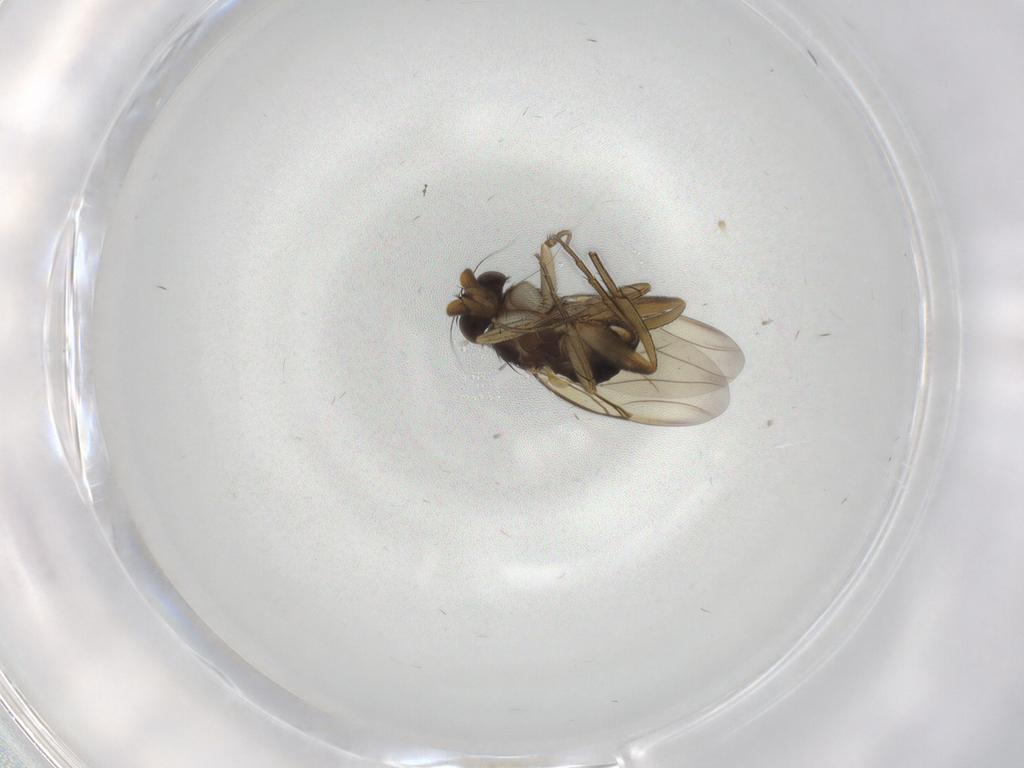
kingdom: Animalia
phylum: Arthropoda
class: Insecta
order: Diptera
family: Phoridae
